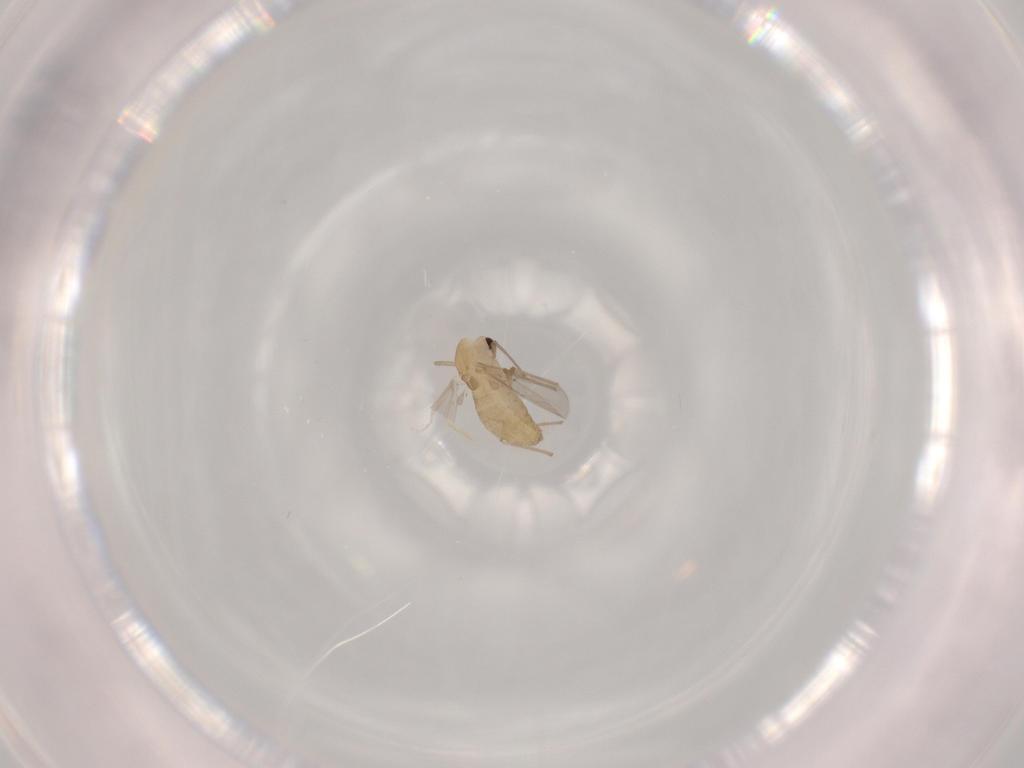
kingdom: Animalia
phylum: Arthropoda
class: Insecta
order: Diptera
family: Chironomidae
